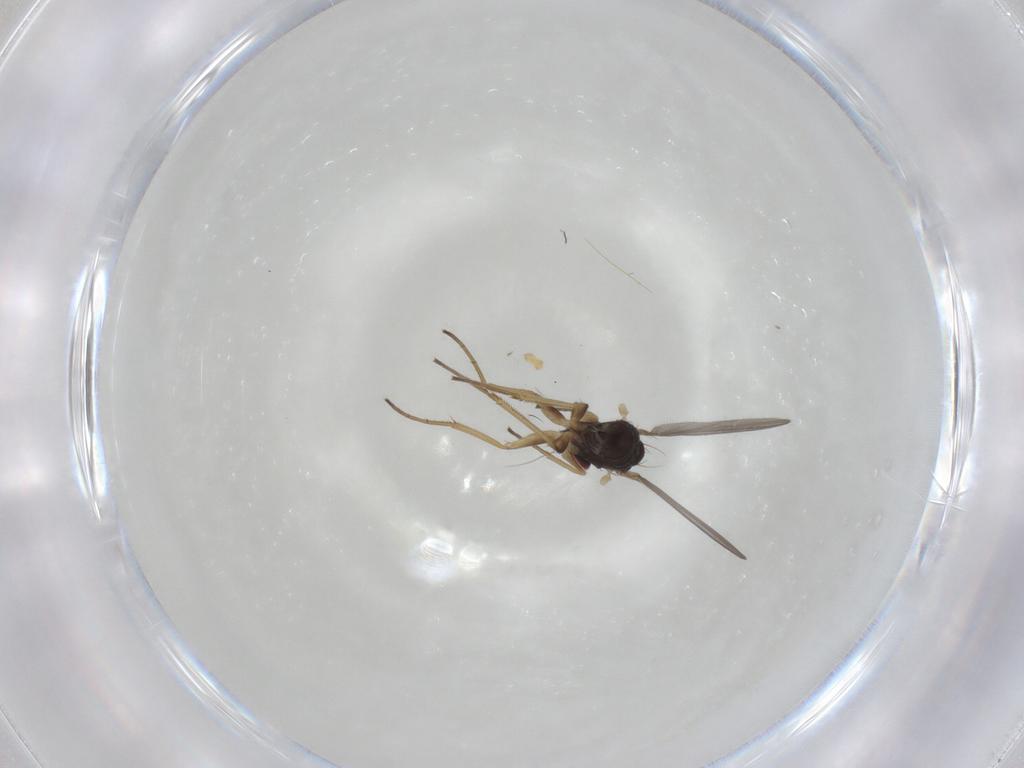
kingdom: Animalia
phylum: Arthropoda
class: Insecta
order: Diptera
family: Dolichopodidae
